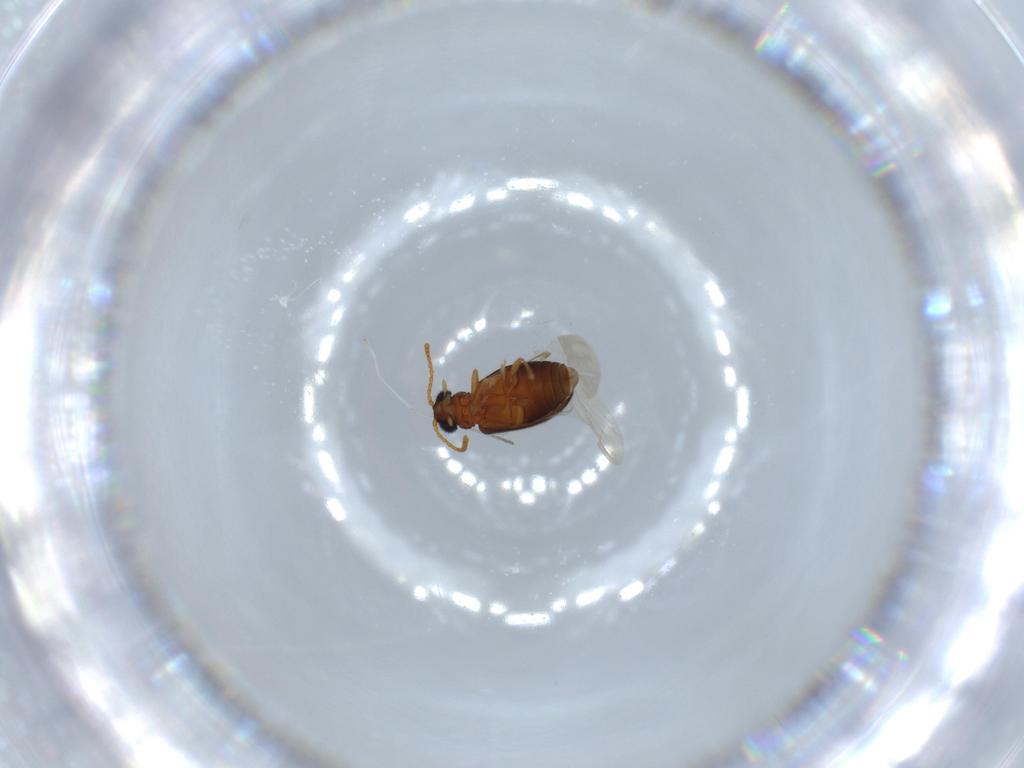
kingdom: Animalia
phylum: Arthropoda
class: Insecta
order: Coleoptera
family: Aderidae
